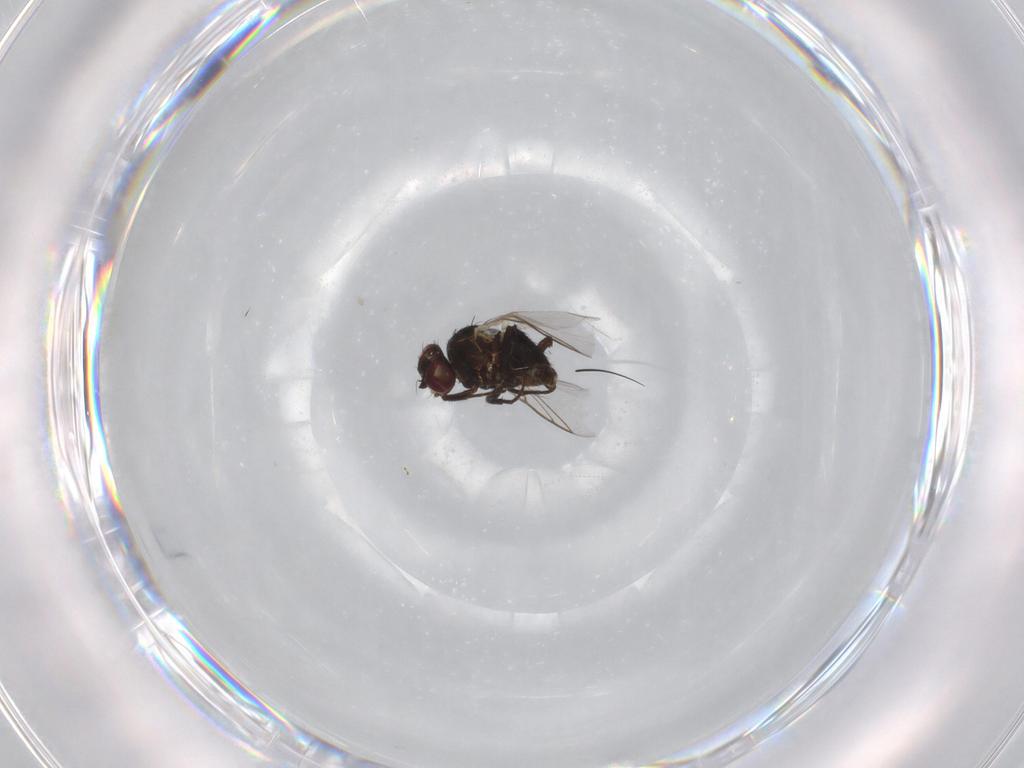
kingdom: Animalia
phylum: Arthropoda
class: Insecta
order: Diptera
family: Agromyzidae
